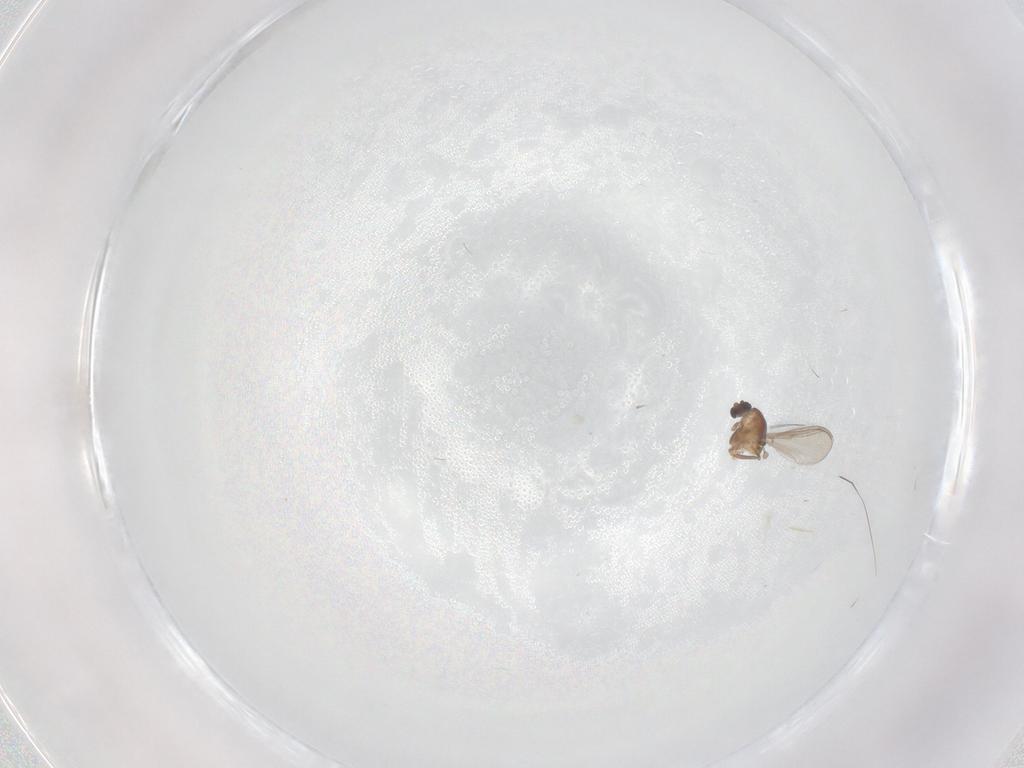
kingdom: Animalia
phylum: Arthropoda
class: Insecta
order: Diptera
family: Chironomidae
